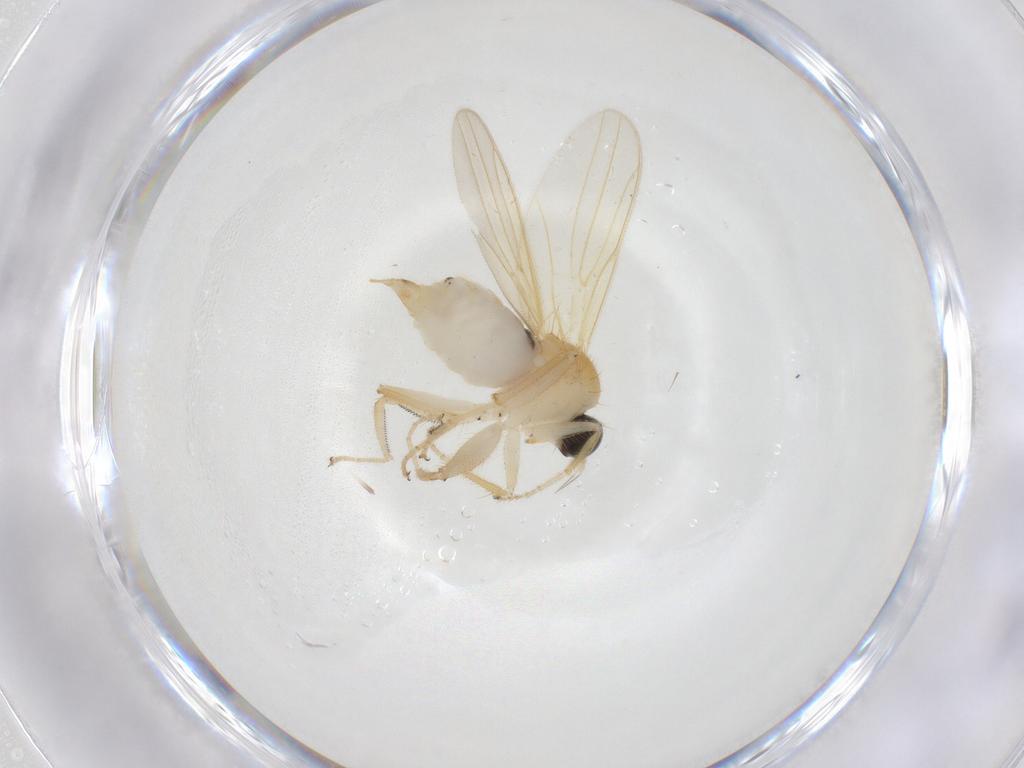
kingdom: Animalia
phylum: Arthropoda
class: Insecta
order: Diptera
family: Hybotidae
